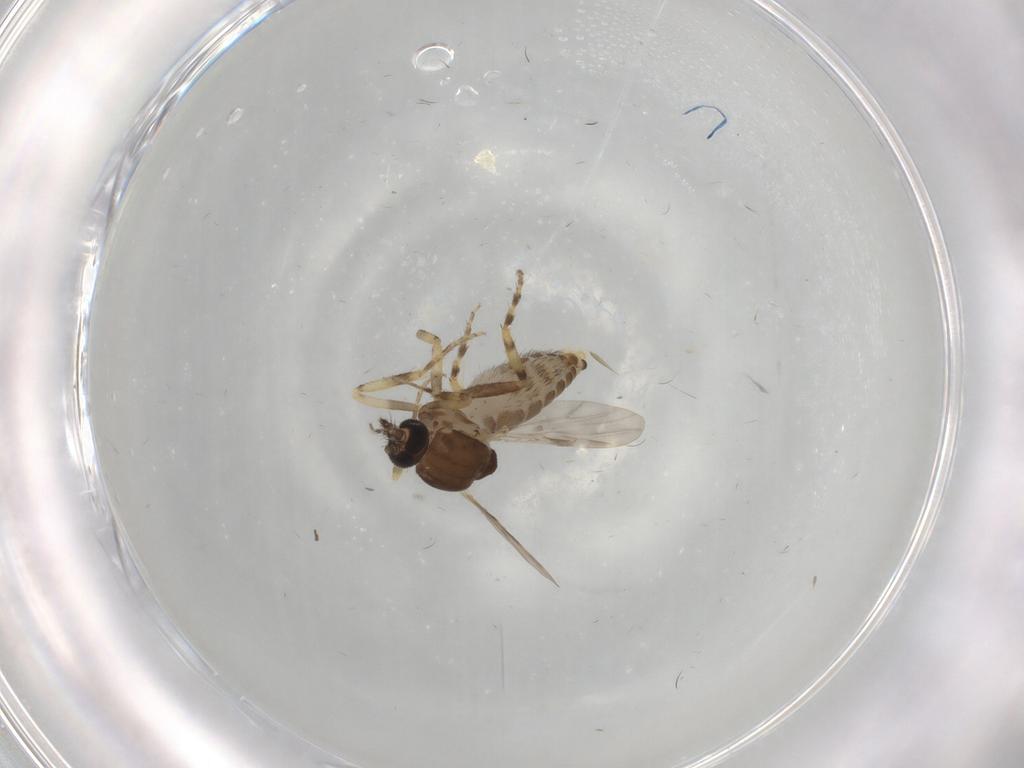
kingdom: Animalia
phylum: Arthropoda
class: Insecta
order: Diptera
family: Ceratopogonidae
